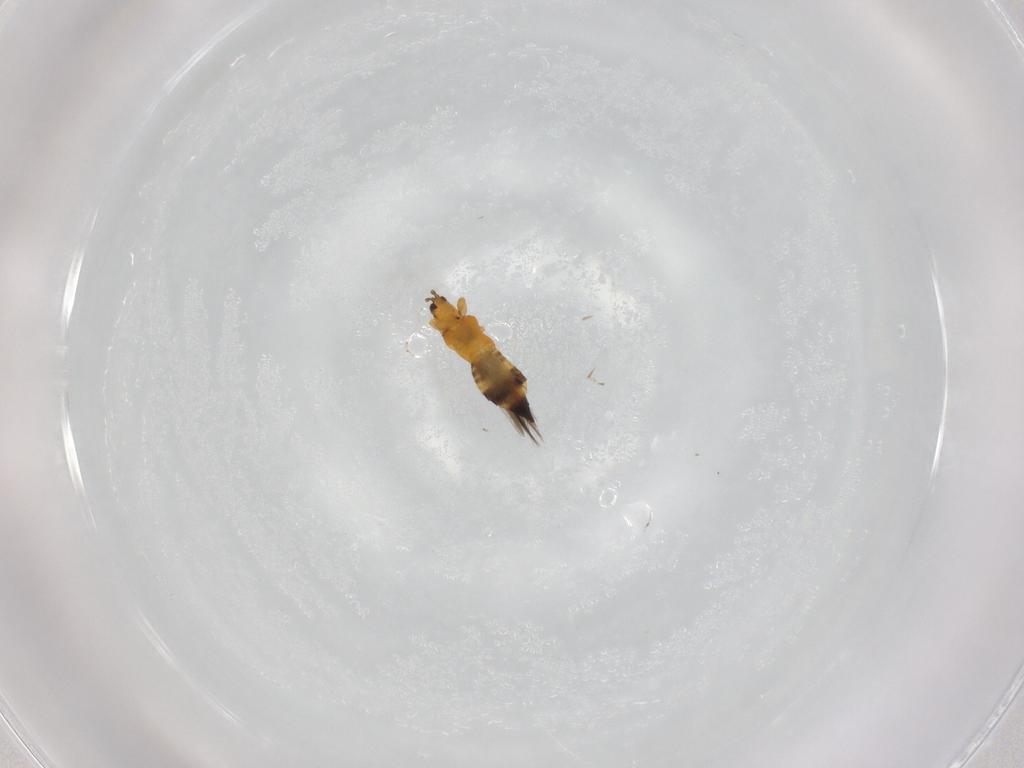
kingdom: Animalia
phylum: Arthropoda
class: Insecta
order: Thysanoptera
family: Thripidae
